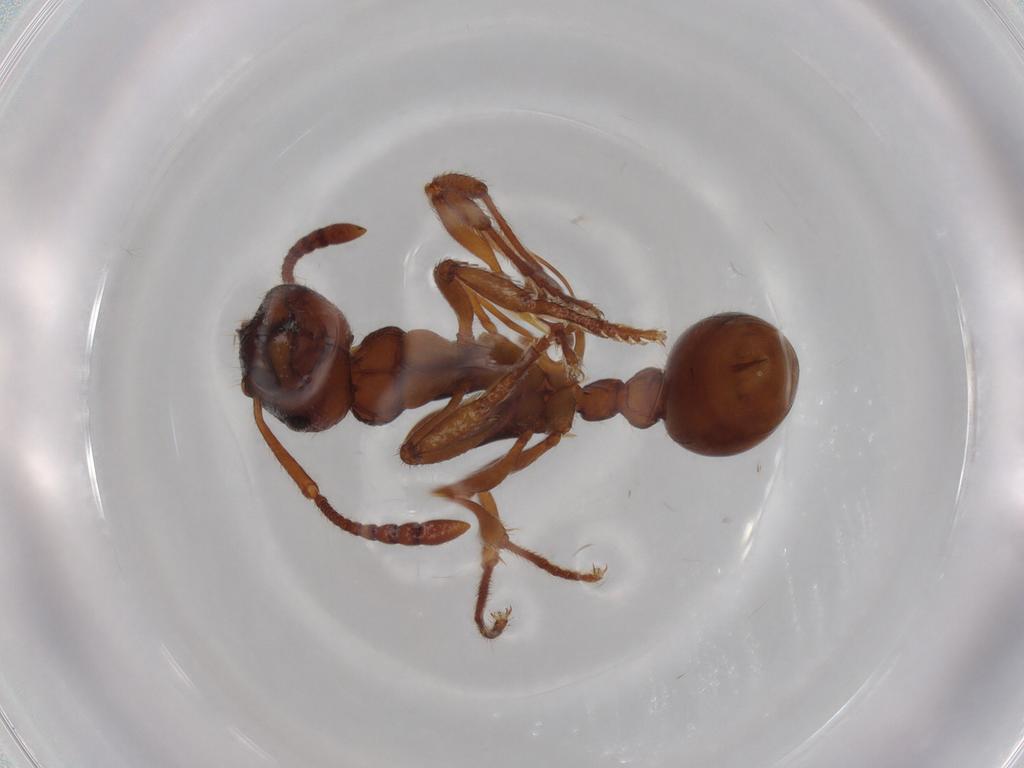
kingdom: Animalia
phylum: Arthropoda
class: Insecta
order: Hymenoptera
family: Formicidae
